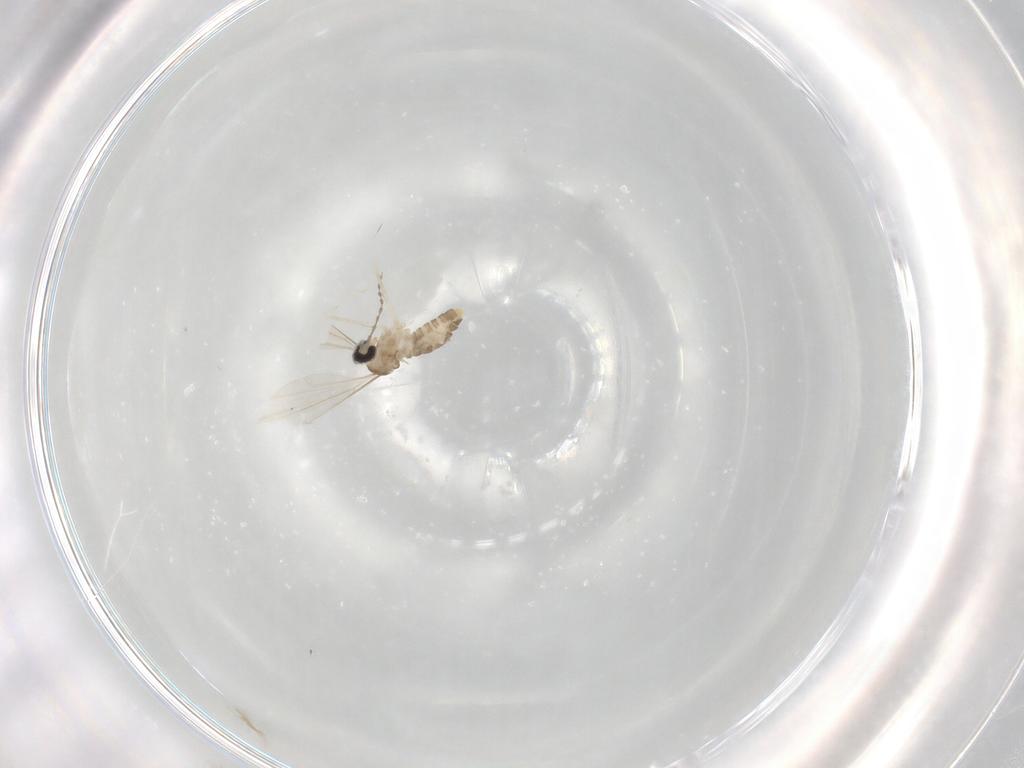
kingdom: Animalia
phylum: Arthropoda
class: Insecta
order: Diptera
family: Cecidomyiidae
